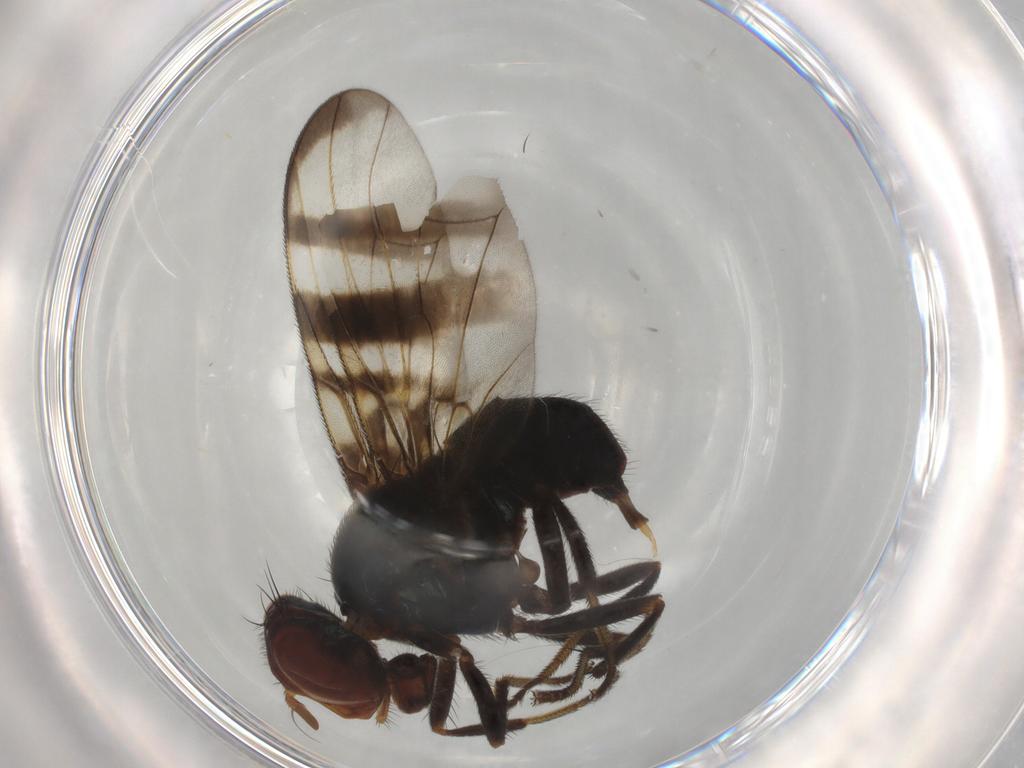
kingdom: Animalia
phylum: Arthropoda
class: Insecta
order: Diptera
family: Platystomatidae
